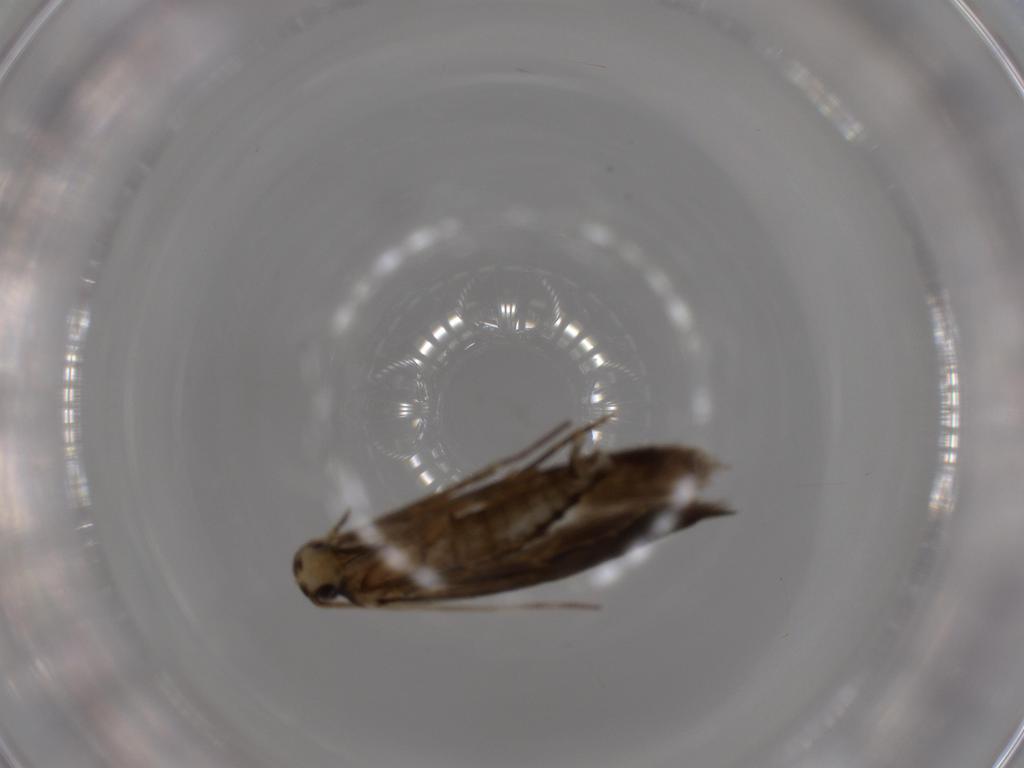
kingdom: Animalia
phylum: Arthropoda
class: Insecta
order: Lepidoptera
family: Tineidae
